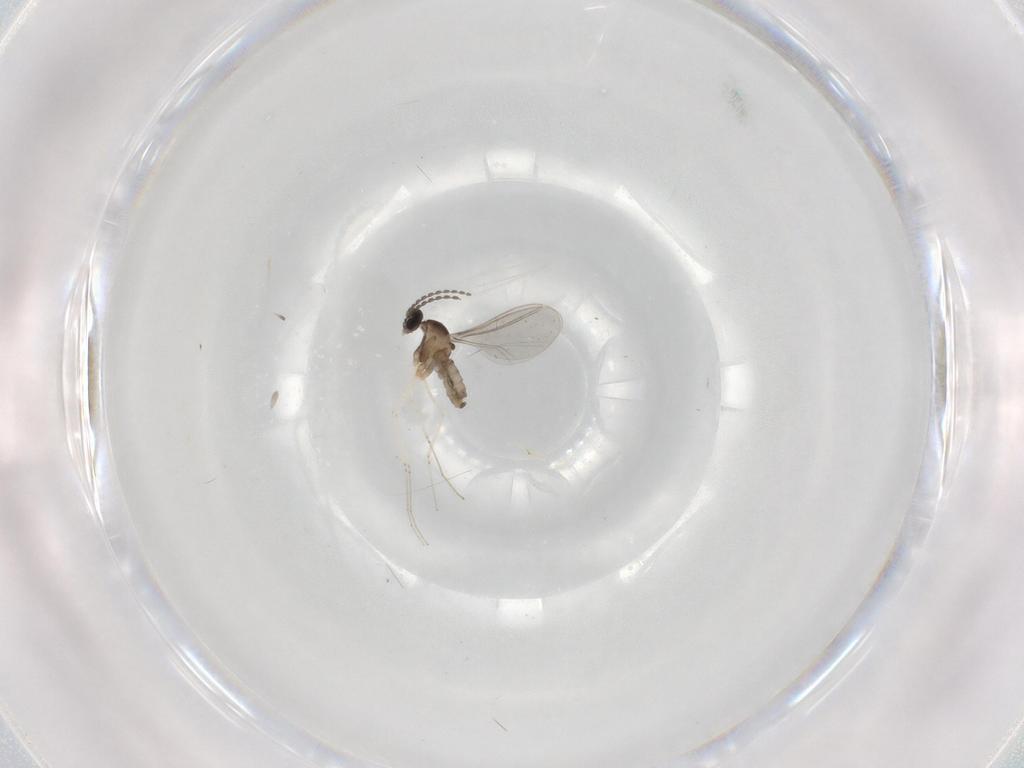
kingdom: Animalia
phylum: Arthropoda
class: Insecta
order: Diptera
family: Cecidomyiidae
